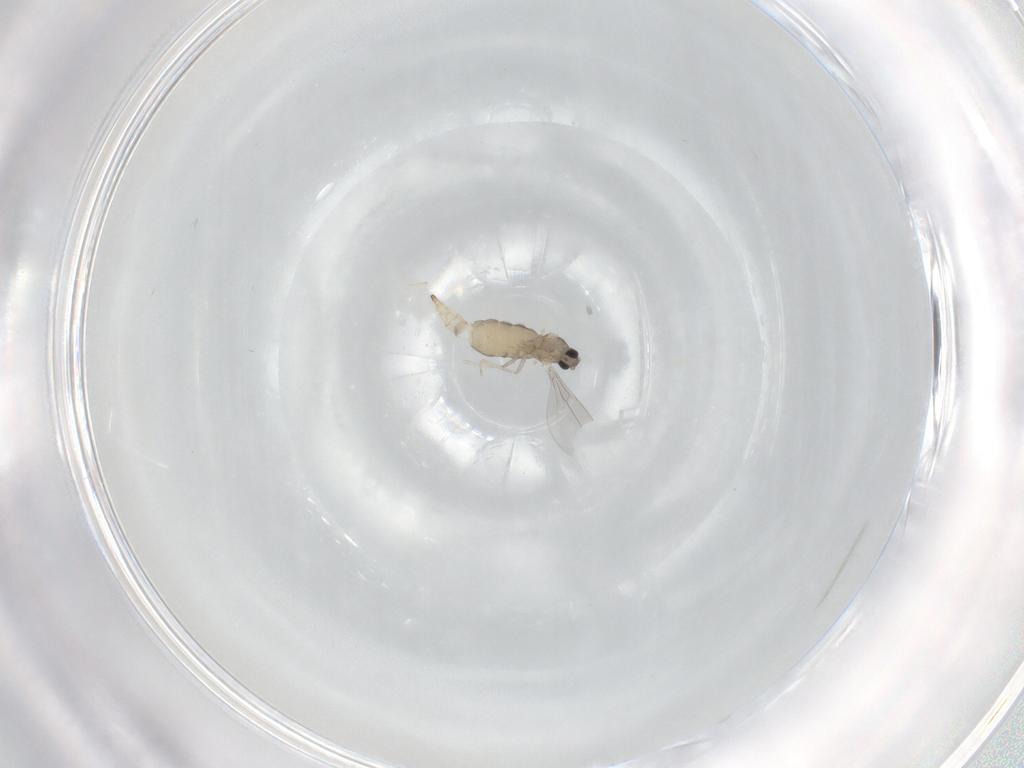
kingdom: Animalia
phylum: Arthropoda
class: Insecta
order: Diptera
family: Cecidomyiidae
